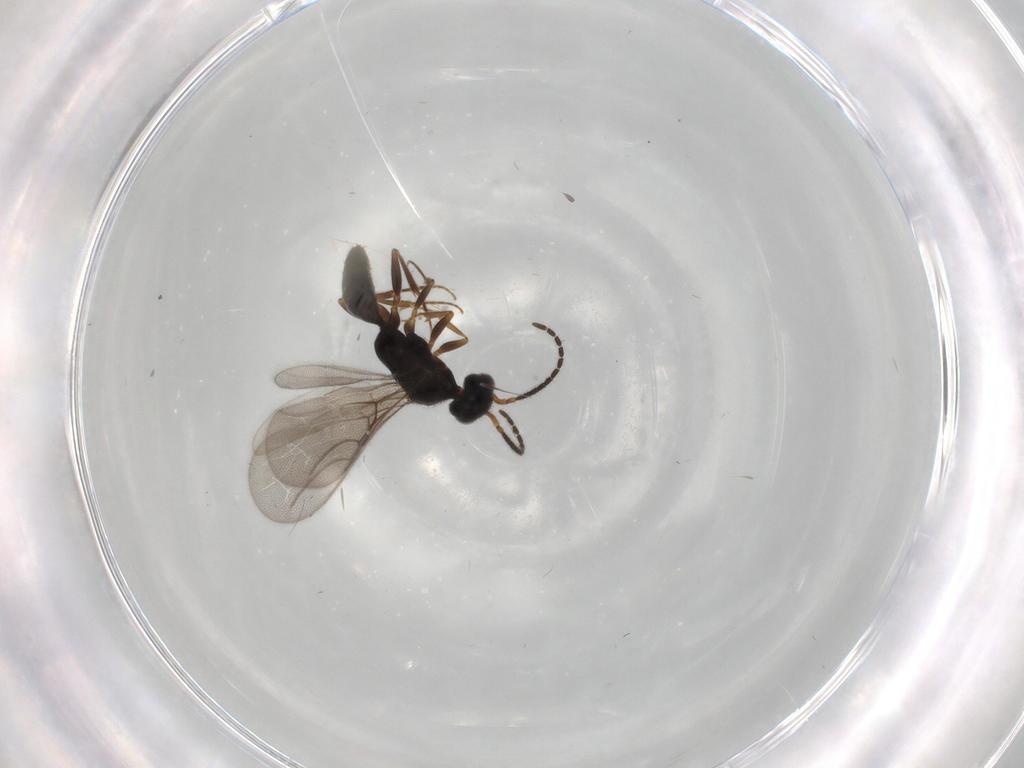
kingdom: Animalia
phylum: Arthropoda
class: Insecta
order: Hymenoptera
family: Bethylidae
